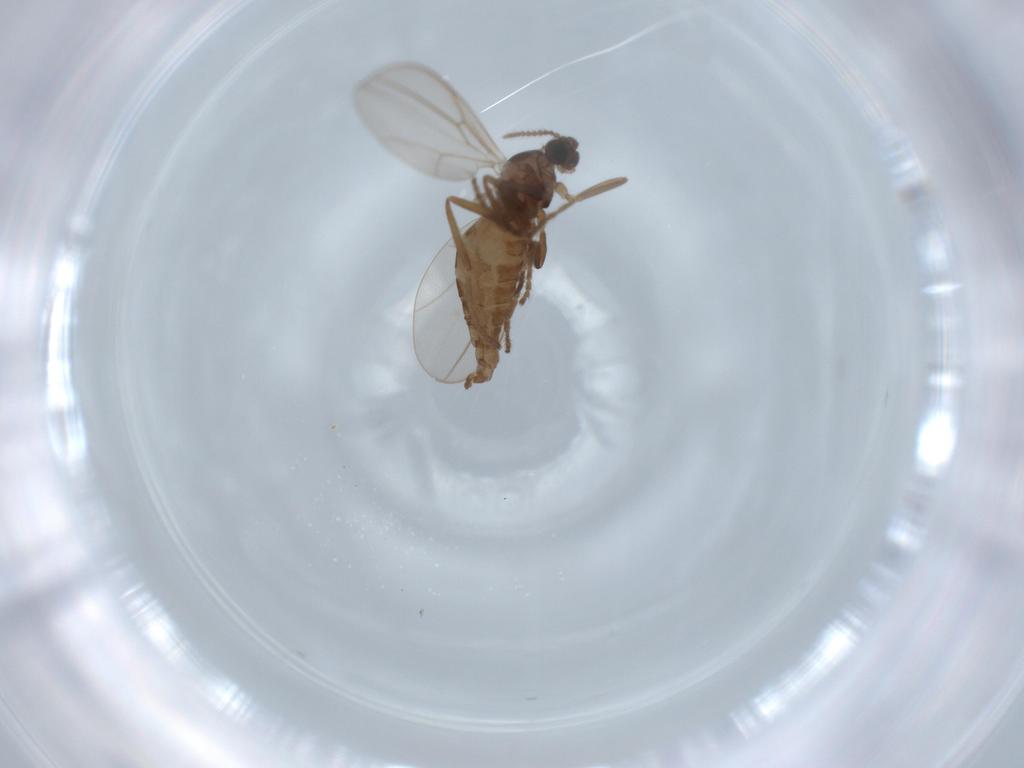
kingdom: Animalia
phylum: Arthropoda
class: Insecta
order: Diptera
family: Cecidomyiidae
